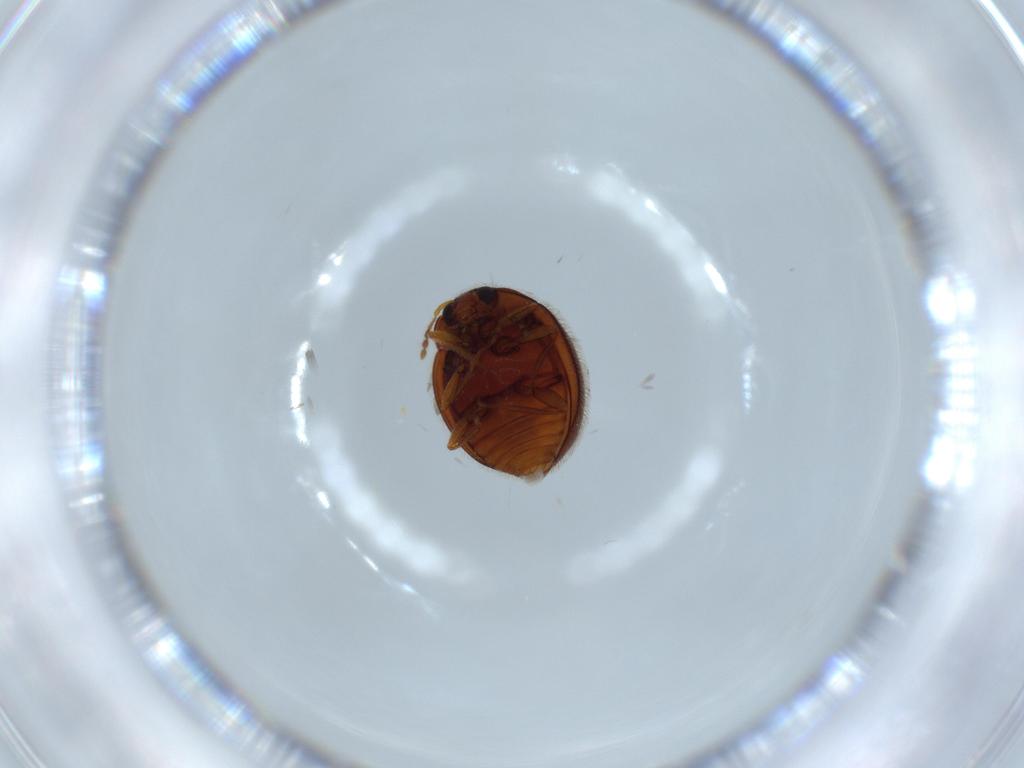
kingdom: Animalia
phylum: Arthropoda
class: Insecta
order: Coleoptera
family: Anamorphidae
